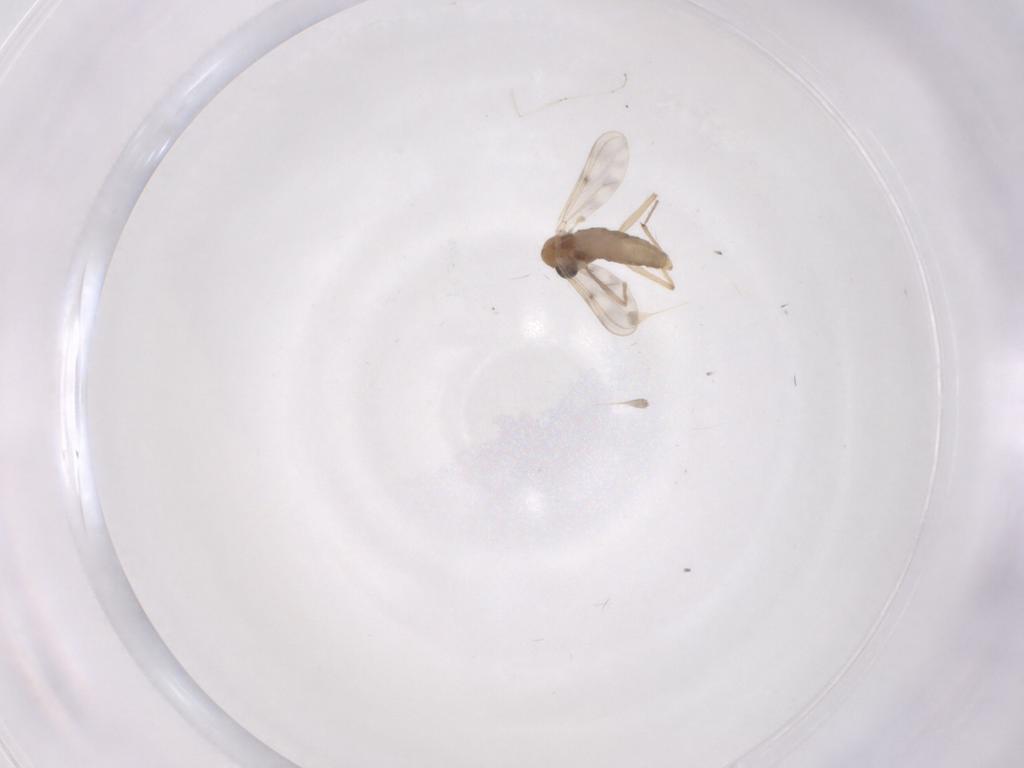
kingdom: Animalia
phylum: Arthropoda
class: Insecta
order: Diptera
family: Chironomidae
